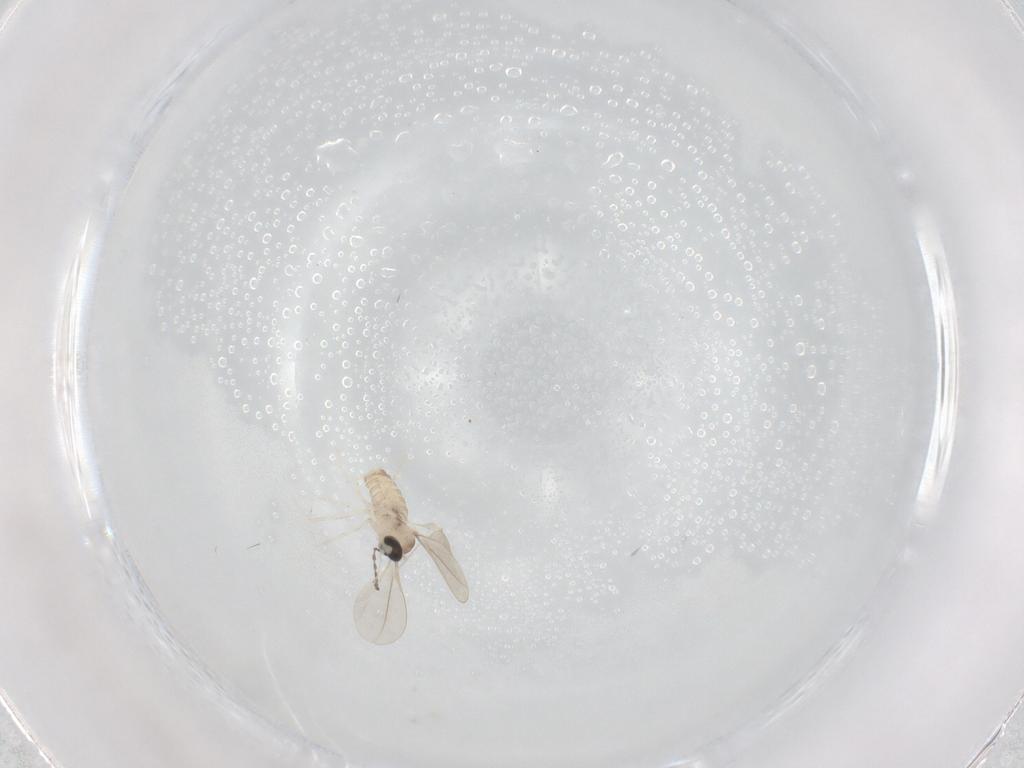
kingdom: Animalia
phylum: Arthropoda
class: Insecta
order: Diptera
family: Cecidomyiidae
